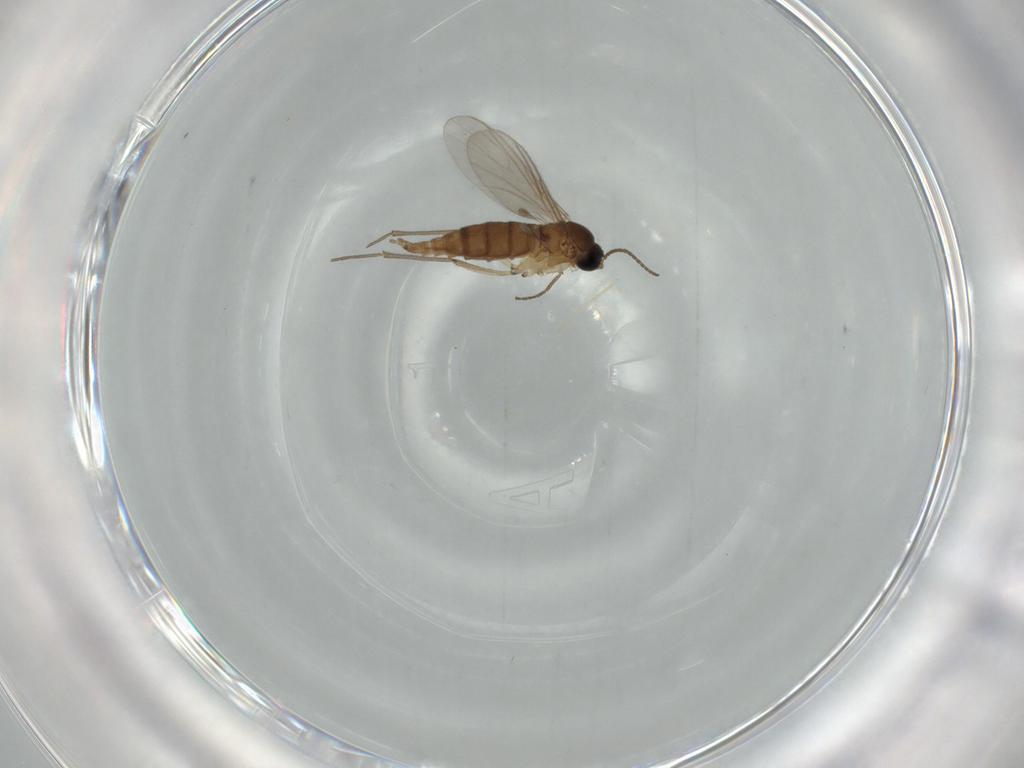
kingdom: Animalia
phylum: Arthropoda
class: Insecta
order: Diptera
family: Sciaridae
